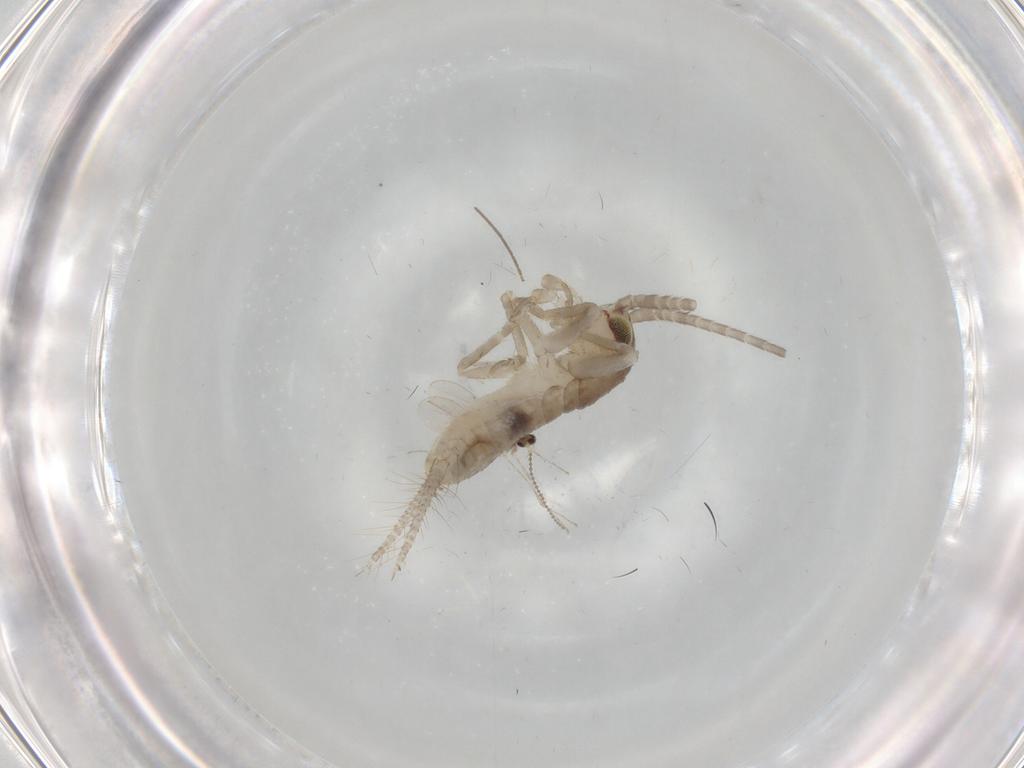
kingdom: Animalia
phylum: Arthropoda
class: Insecta
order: Orthoptera
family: Gryllidae
